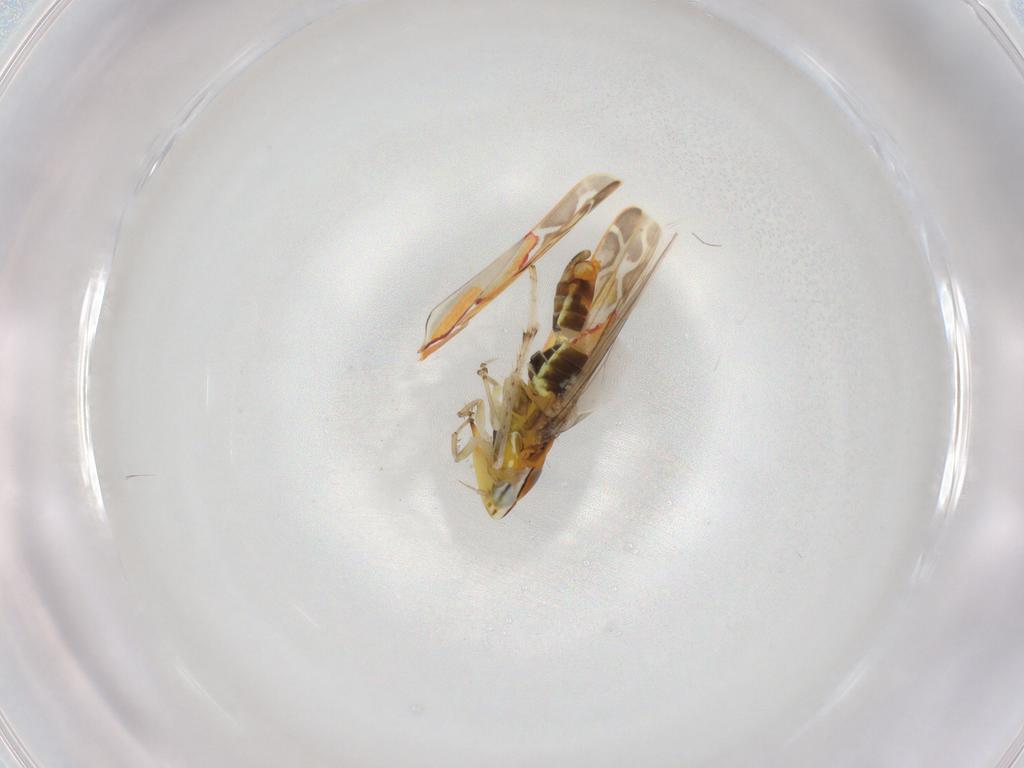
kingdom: Animalia
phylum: Arthropoda
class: Insecta
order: Hemiptera
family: Cicadellidae
